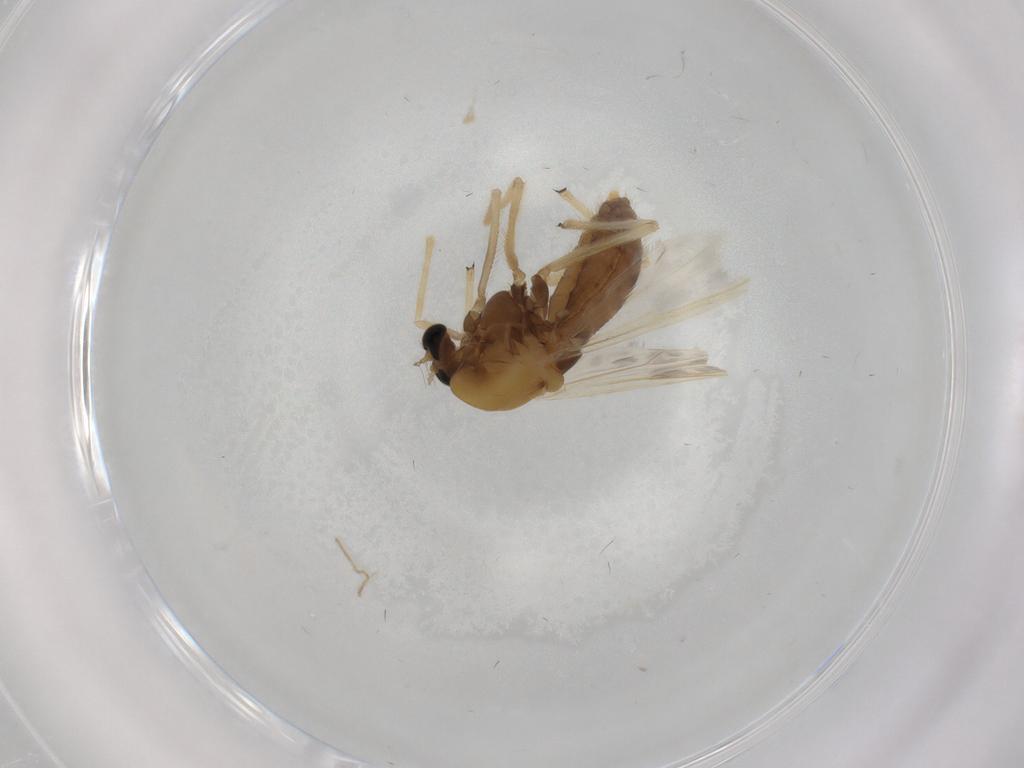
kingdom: Animalia
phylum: Arthropoda
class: Insecta
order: Diptera
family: Chironomidae
